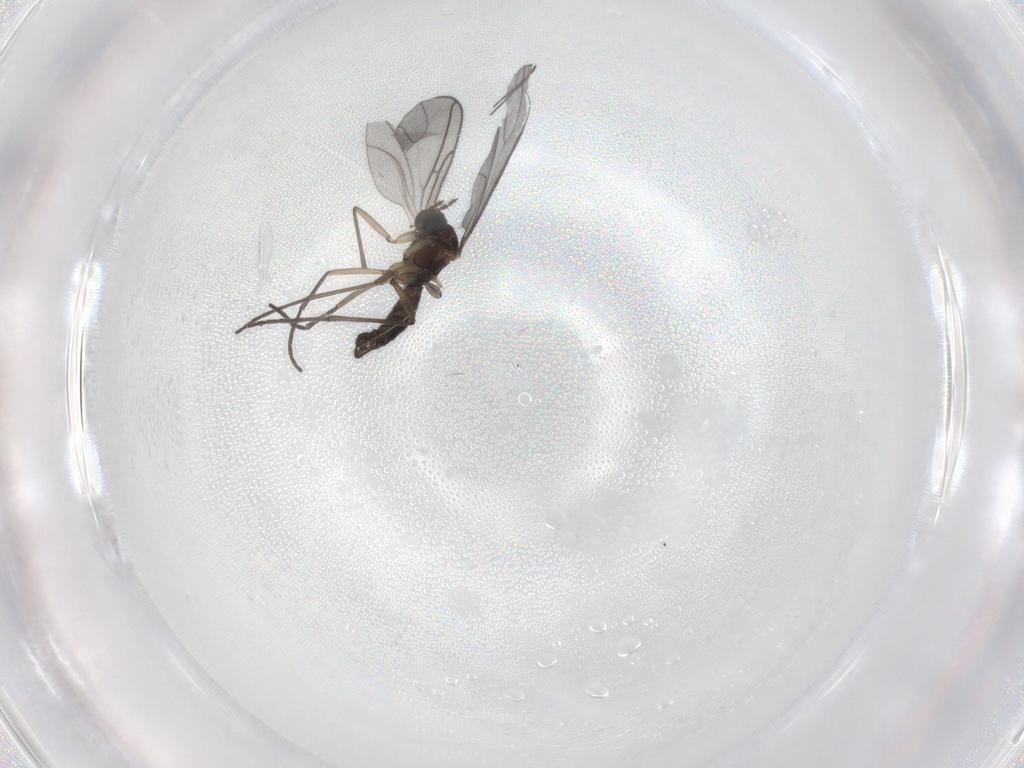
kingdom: Animalia
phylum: Arthropoda
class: Insecta
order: Diptera
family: Sciaridae
